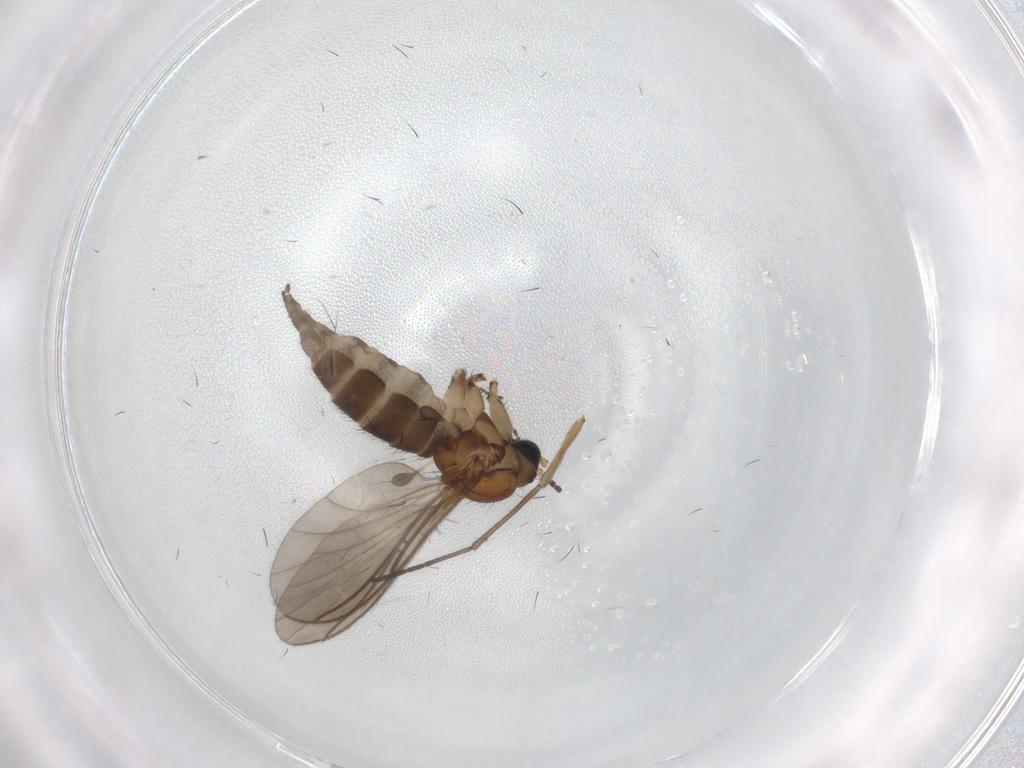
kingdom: Animalia
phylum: Arthropoda
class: Insecta
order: Diptera
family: Sciaridae
